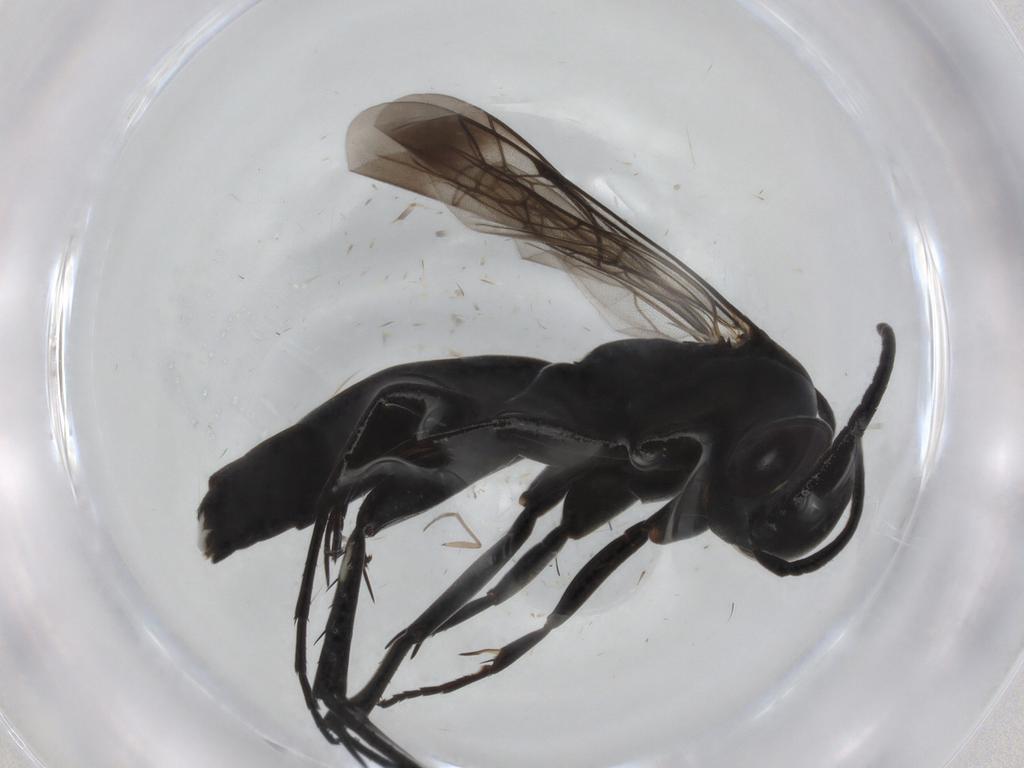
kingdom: Animalia
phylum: Arthropoda
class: Insecta
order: Hymenoptera
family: Pompilidae
